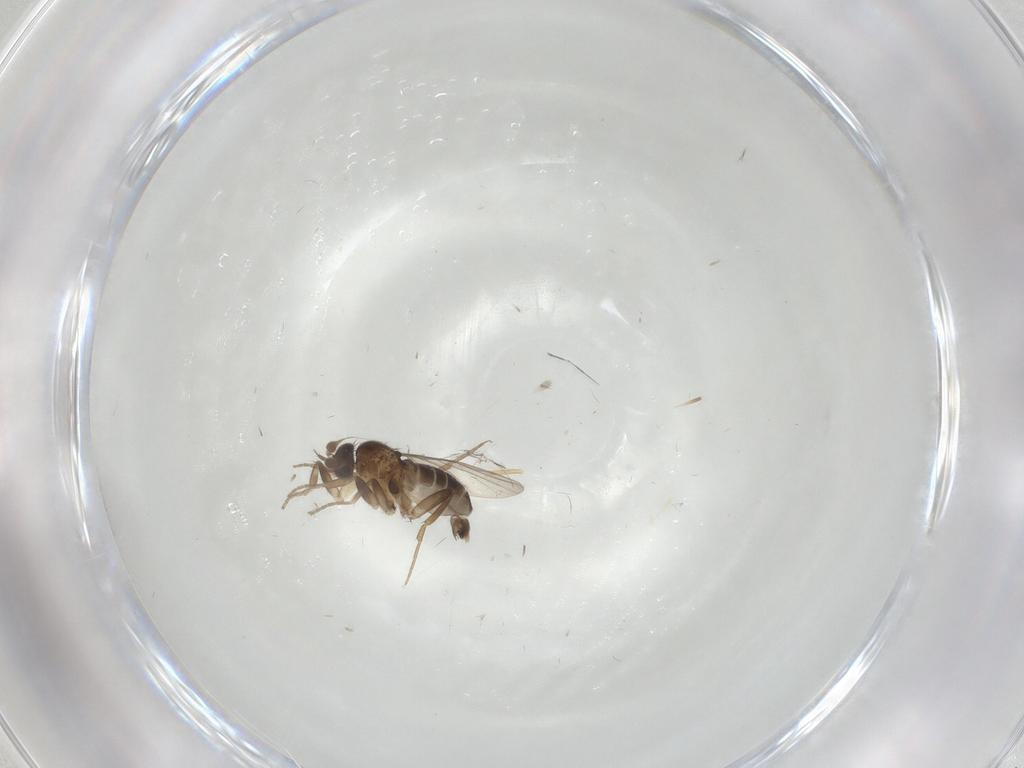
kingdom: Animalia
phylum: Arthropoda
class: Insecta
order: Diptera
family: Phoridae
